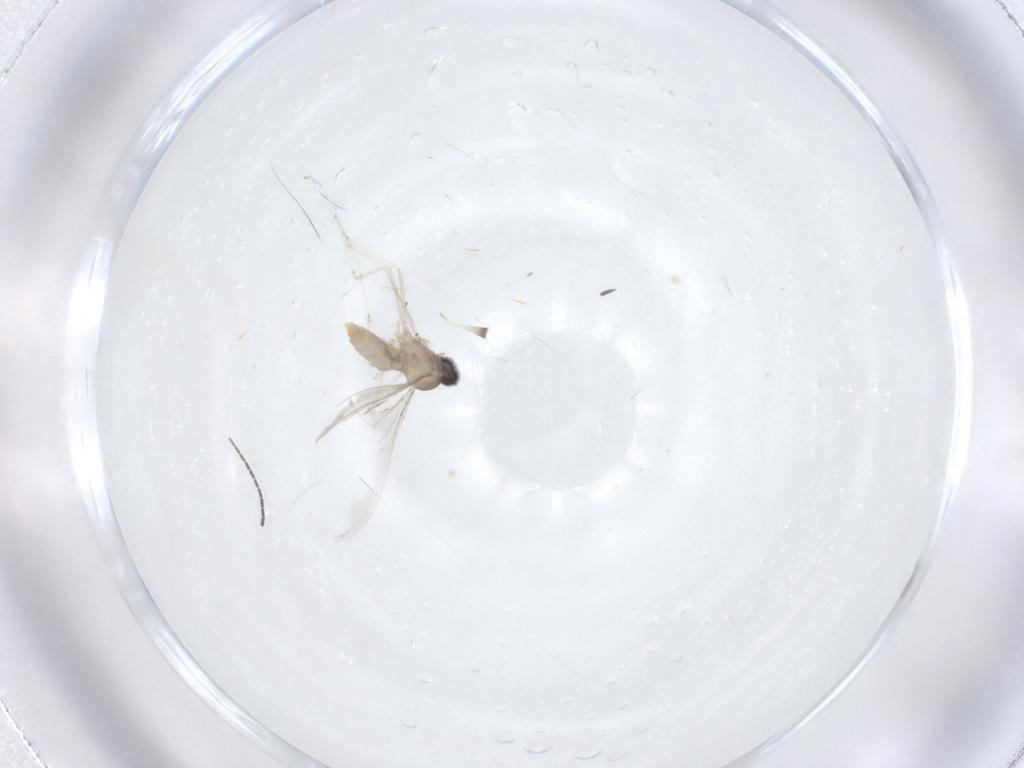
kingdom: Animalia
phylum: Arthropoda
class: Insecta
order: Diptera
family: Cecidomyiidae
